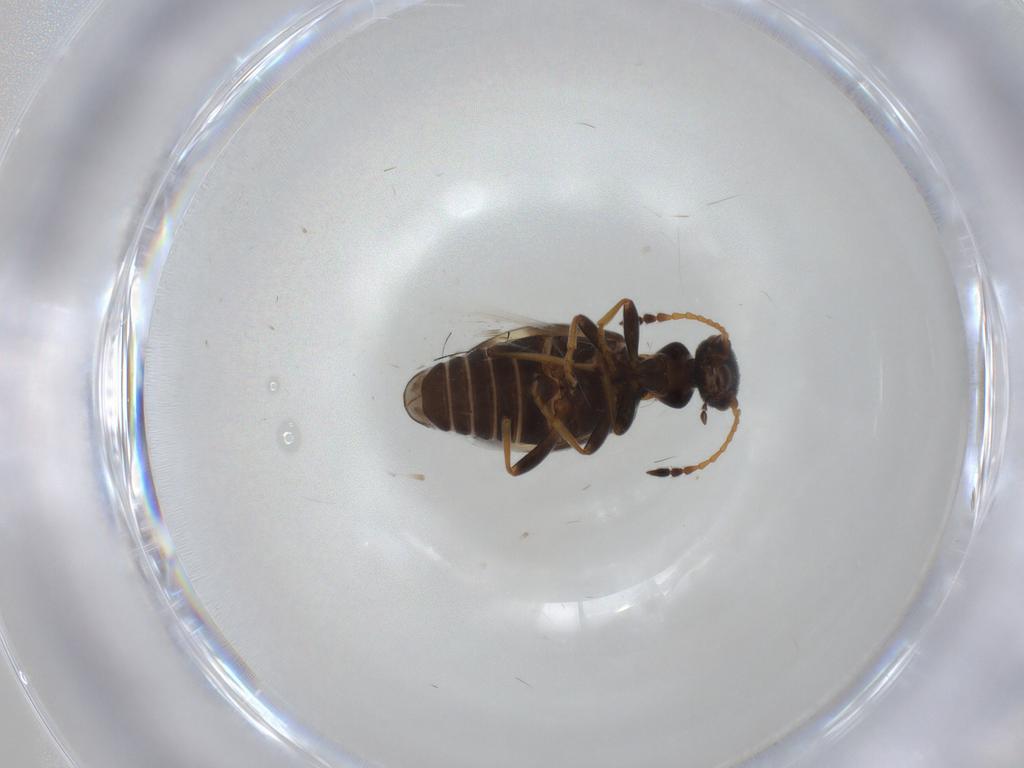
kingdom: Animalia
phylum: Arthropoda
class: Insecta
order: Coleoptera
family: Anthicidae
